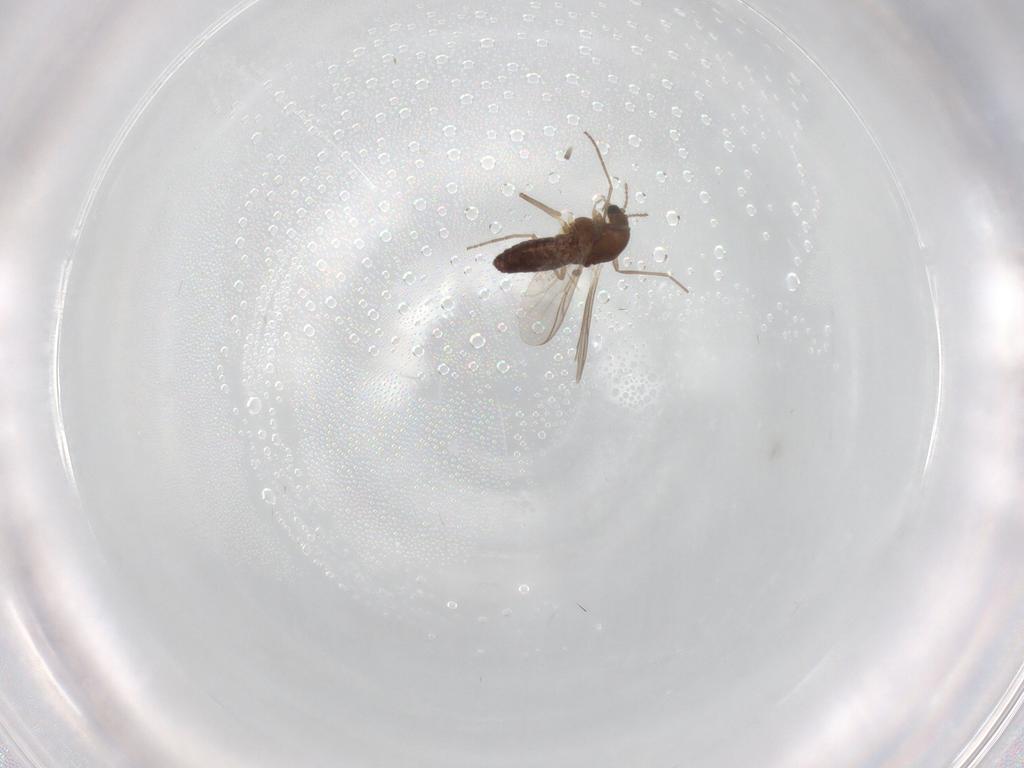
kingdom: Animalia
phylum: Arthropoda
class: Insecta
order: Diptera
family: Chironomidae
